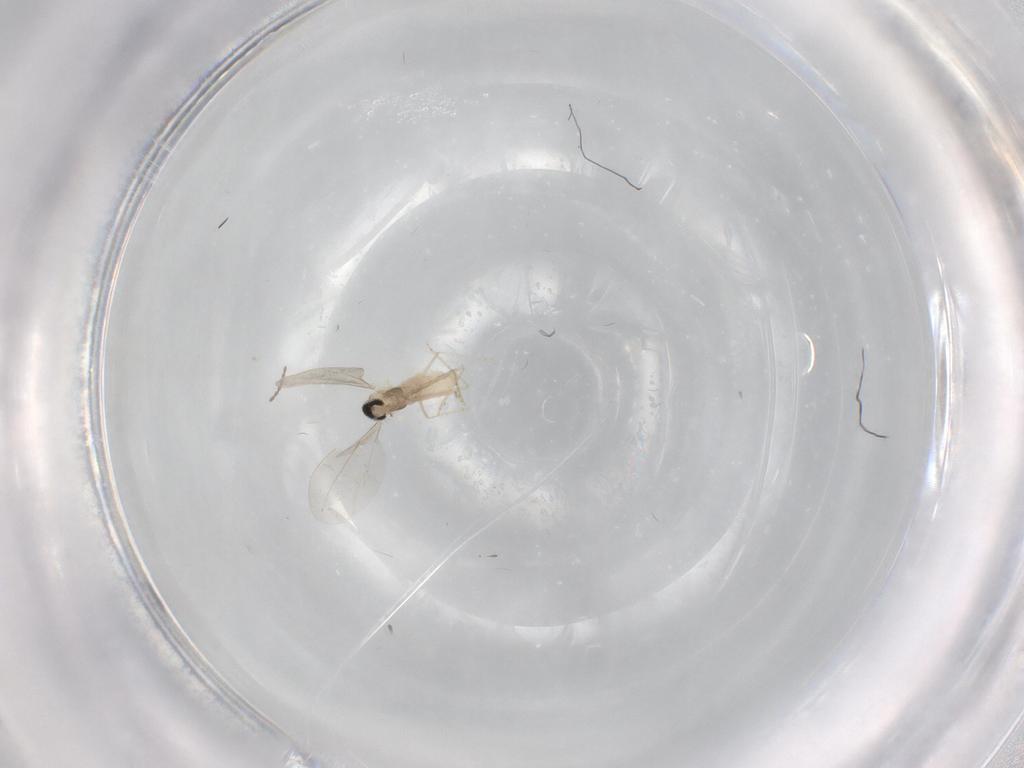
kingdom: Animalia
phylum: Arthropoda
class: Insecta
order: Diptera
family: Cecidomyiidae
